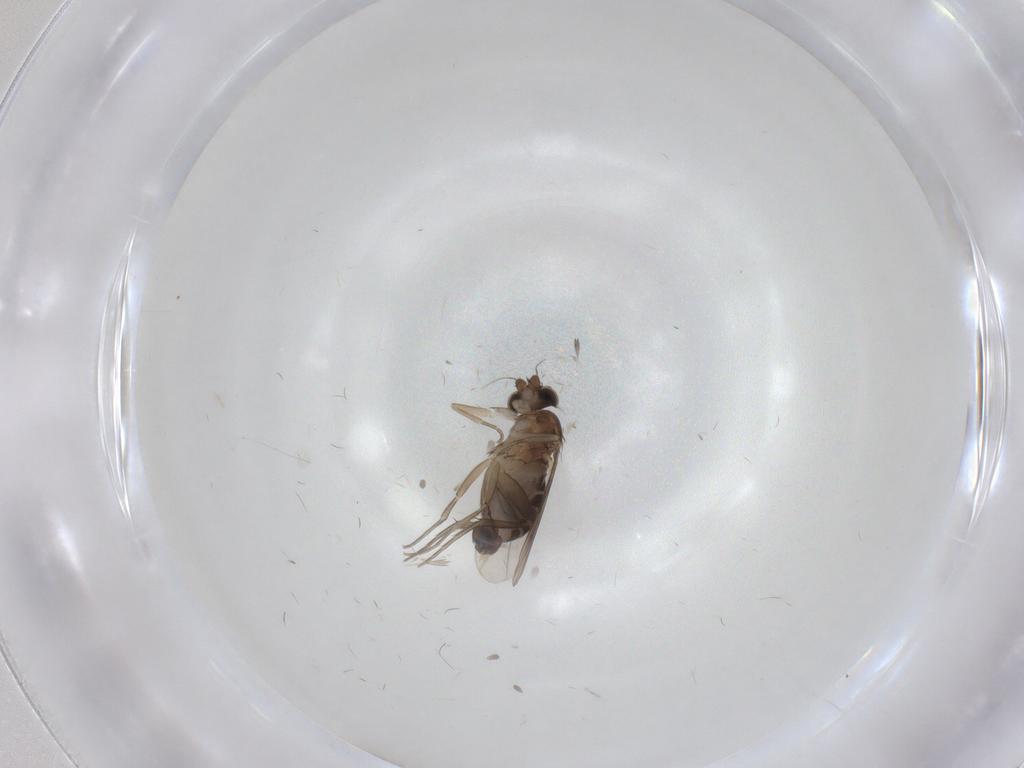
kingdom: Animalia
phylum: Arthropoda
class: Insecta
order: Diptera
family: Phoridae
